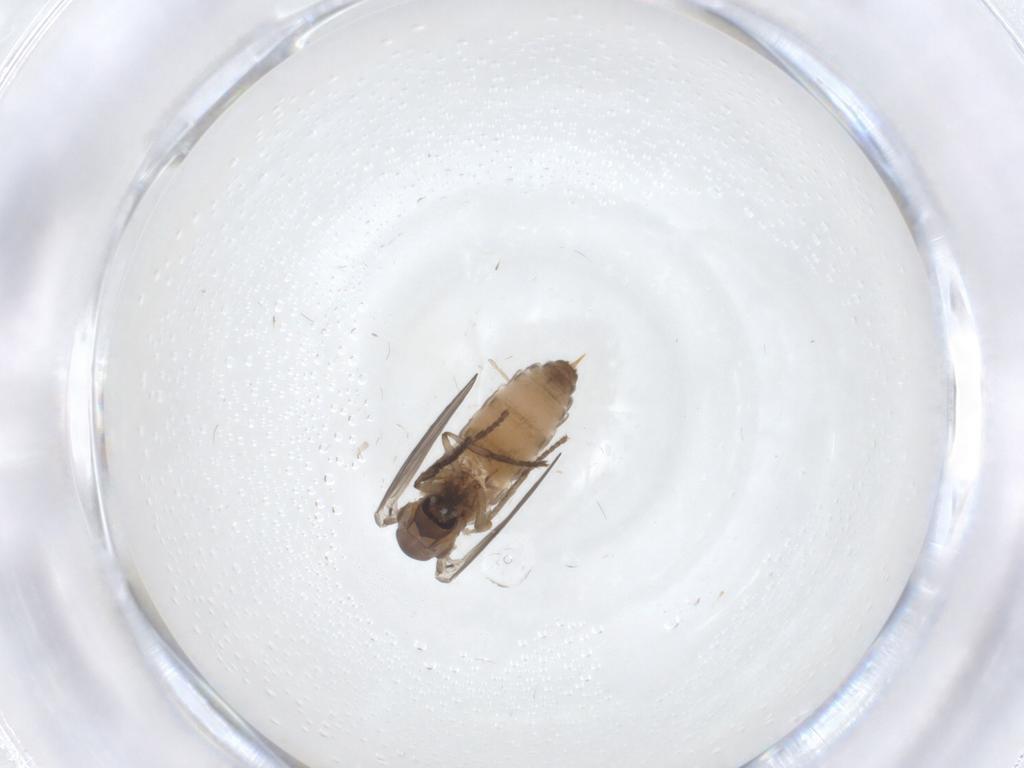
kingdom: Animalia
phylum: Arthropoda
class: Insecta
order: Diptera
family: Psychodidae
